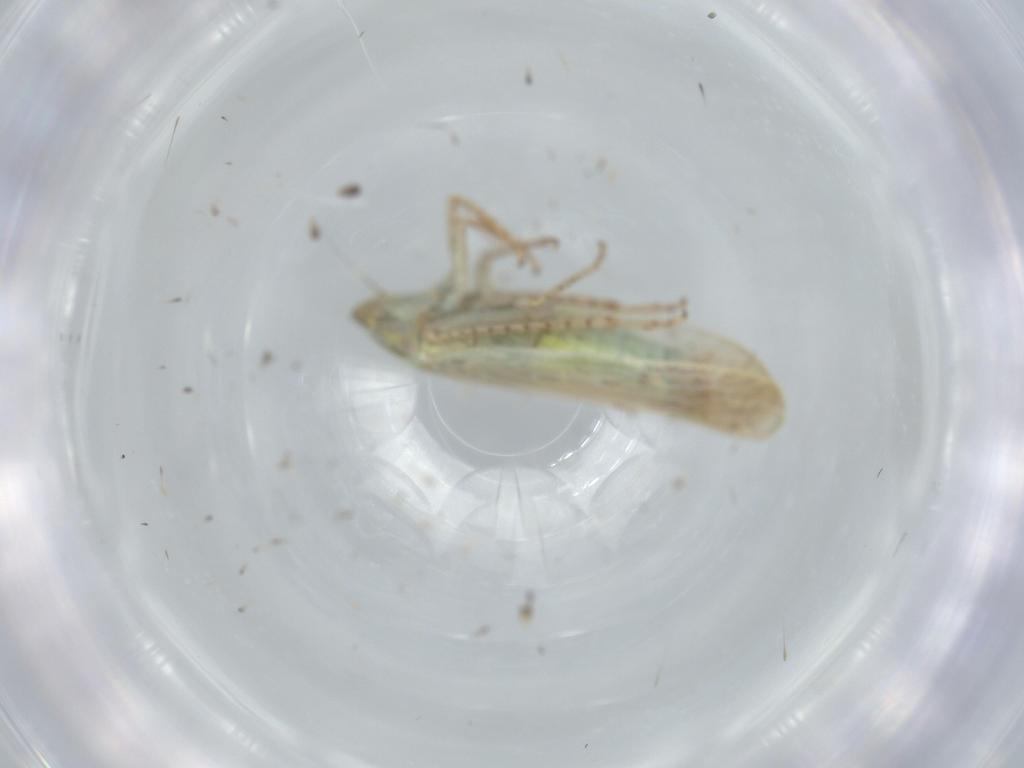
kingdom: Animalia
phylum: Arthropoda
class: Insecta
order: Hemiptera
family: Cicadellidae
